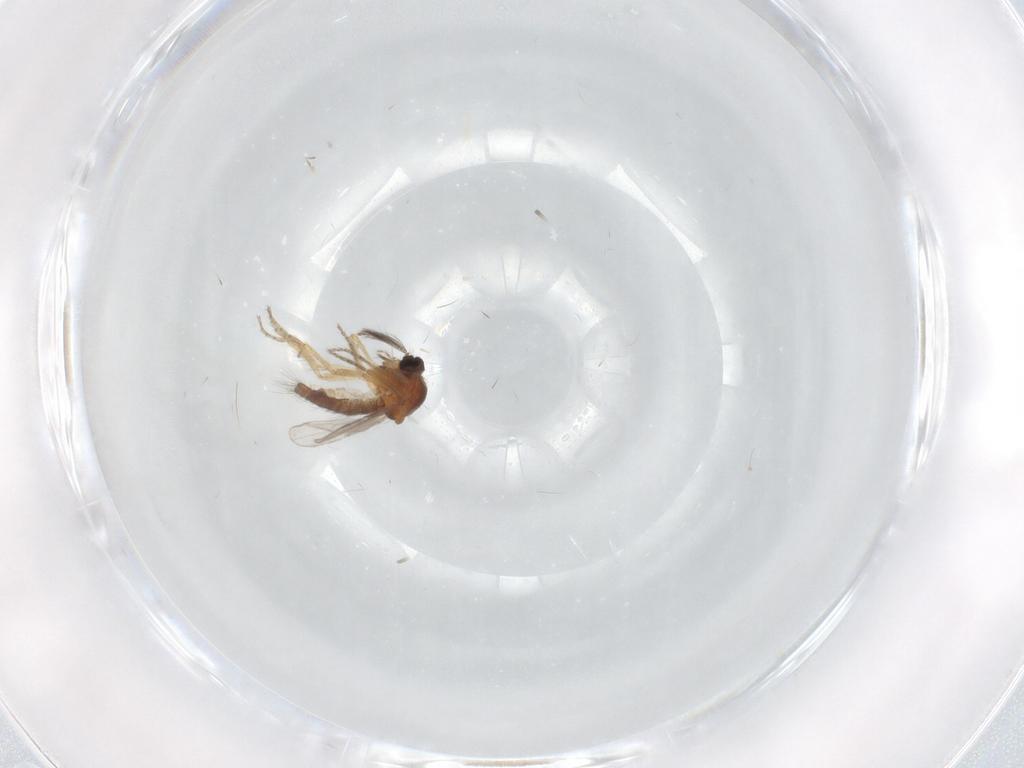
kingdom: Animalia
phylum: Arthropoda
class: Insecta
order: Diptera
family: Ceratopogonidae
